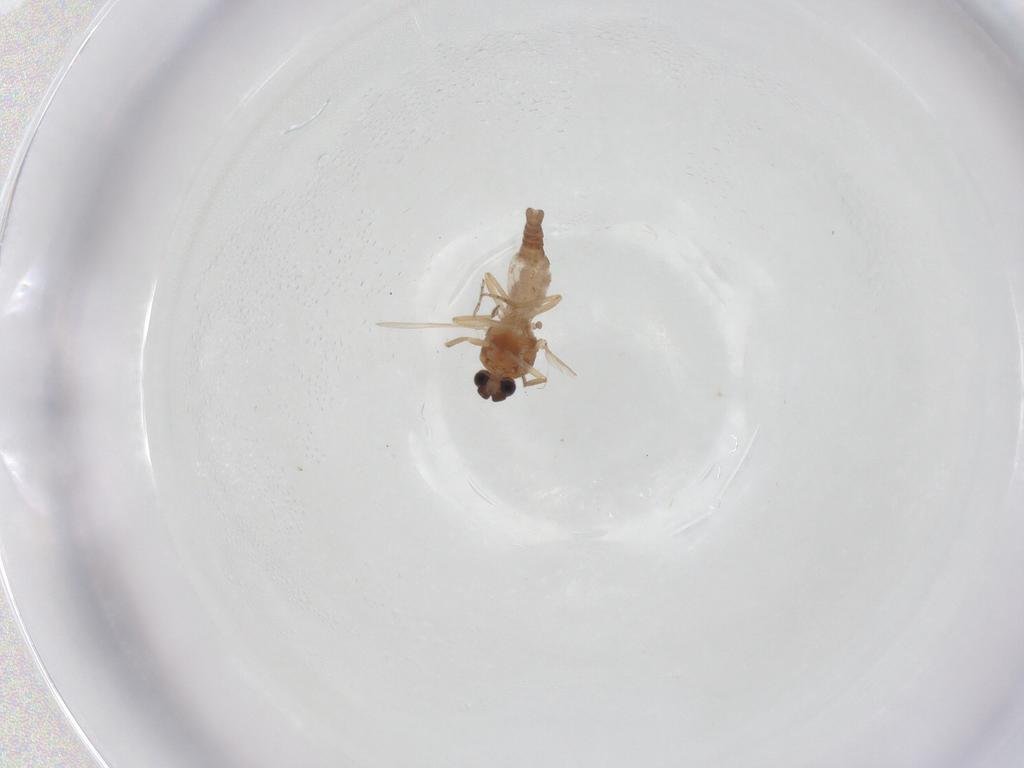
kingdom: Animalia
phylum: Arthropoda
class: Insecta
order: Diptera
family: Ceratopogonidae
